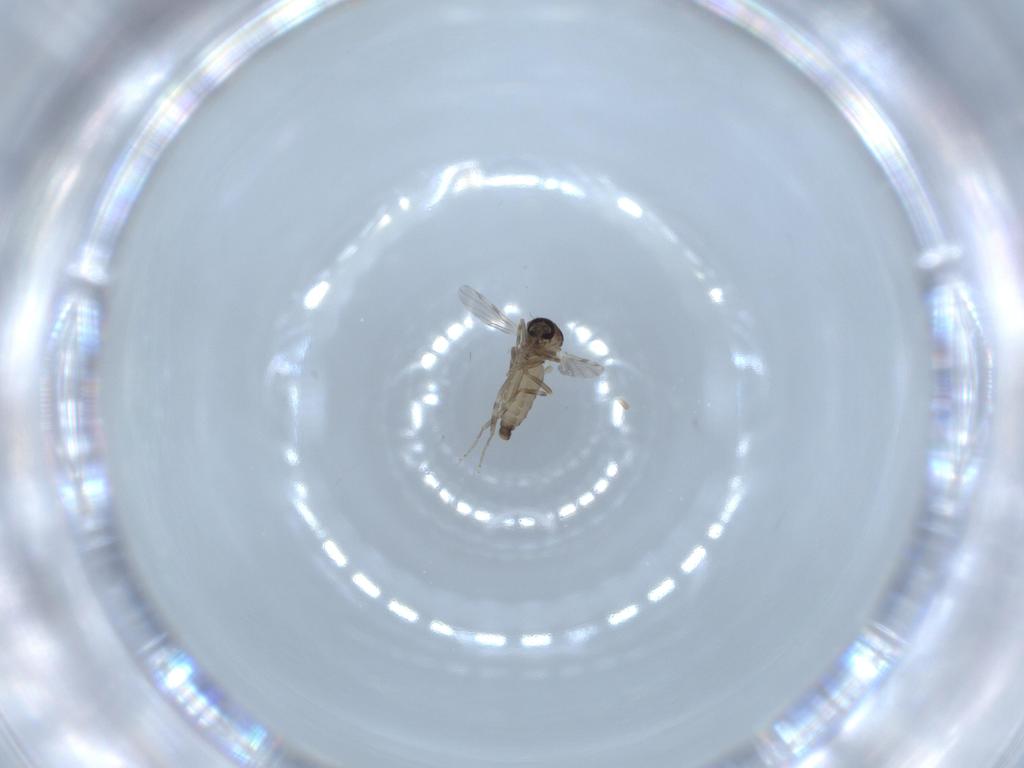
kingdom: Animalia
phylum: Arthropoda
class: Insecta
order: Diptera
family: Ceratopogonidae
